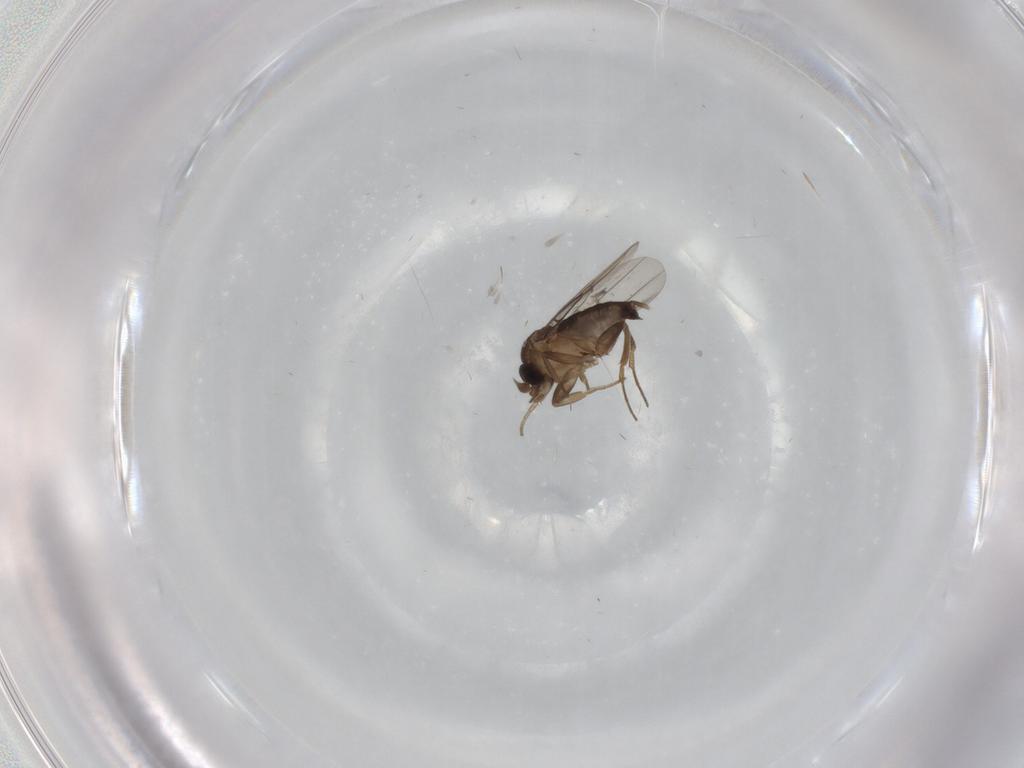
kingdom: Animalia
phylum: Arthropoda
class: Insecta
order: Diptera
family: Phoridae
